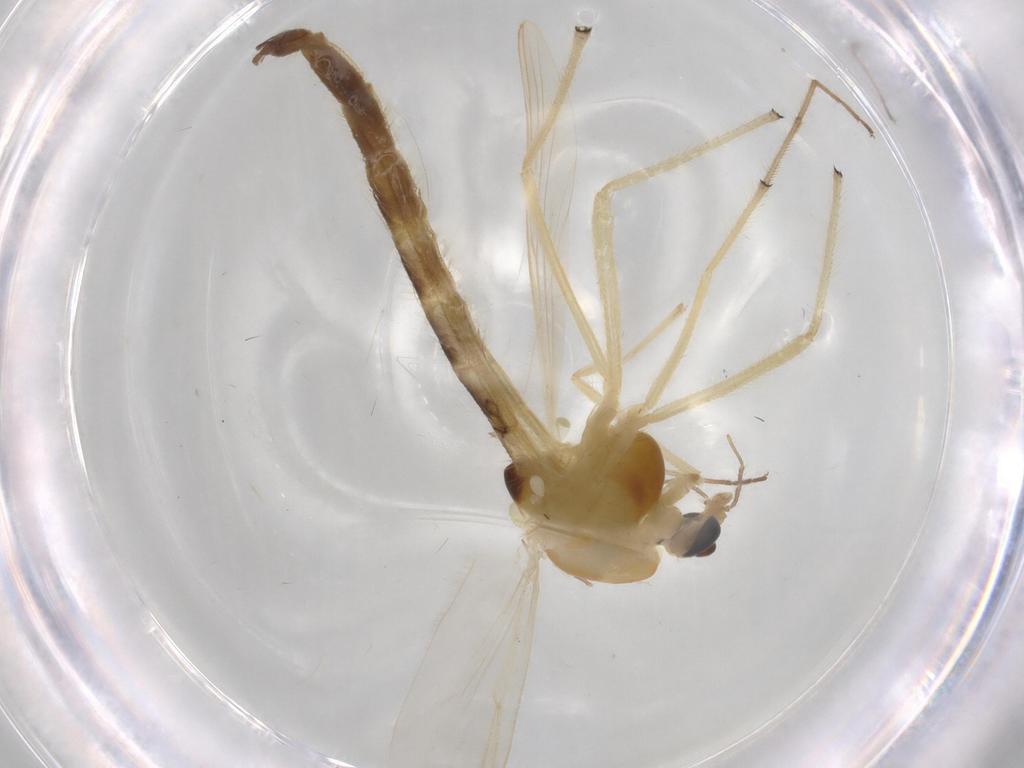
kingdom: Animalia
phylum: Arthropoda
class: Insecta
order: Diptera
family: Chironomidae
